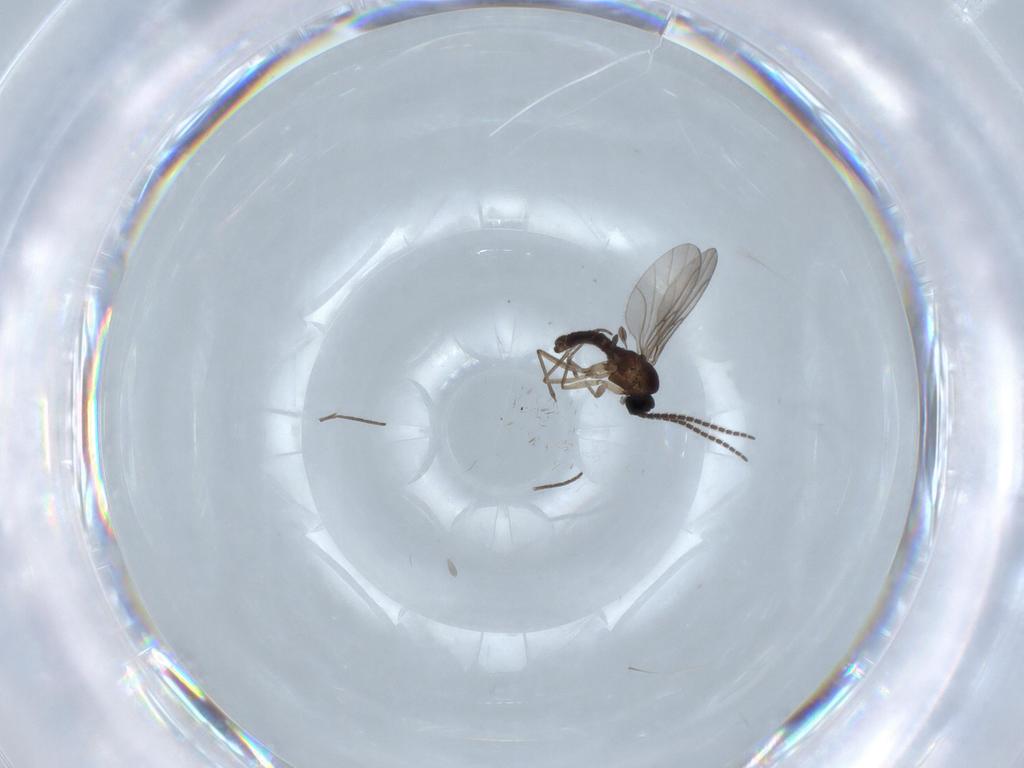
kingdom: Animalia
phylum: Arthropoda
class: Insecta
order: Diptera
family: Sciaridae
